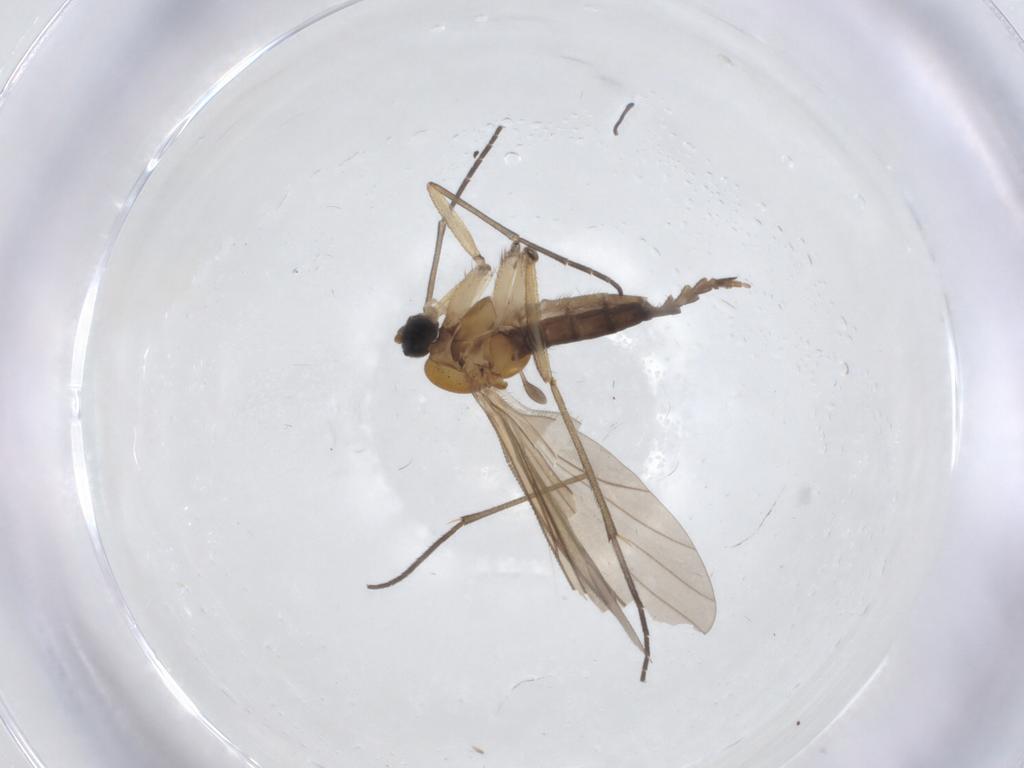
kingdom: Animalia
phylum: Arthropoda
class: Insecta
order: Diptera
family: Sciaridae
